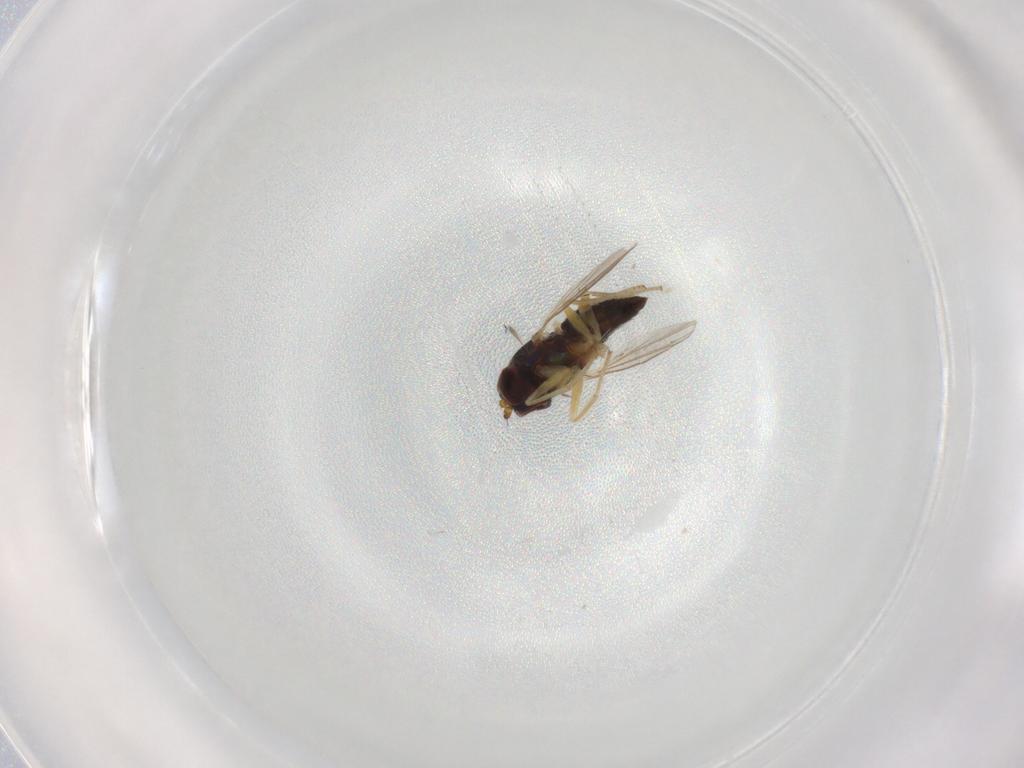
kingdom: Animalia
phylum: Arthropoda
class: Insecta
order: Diptera
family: Dolichopodidae
